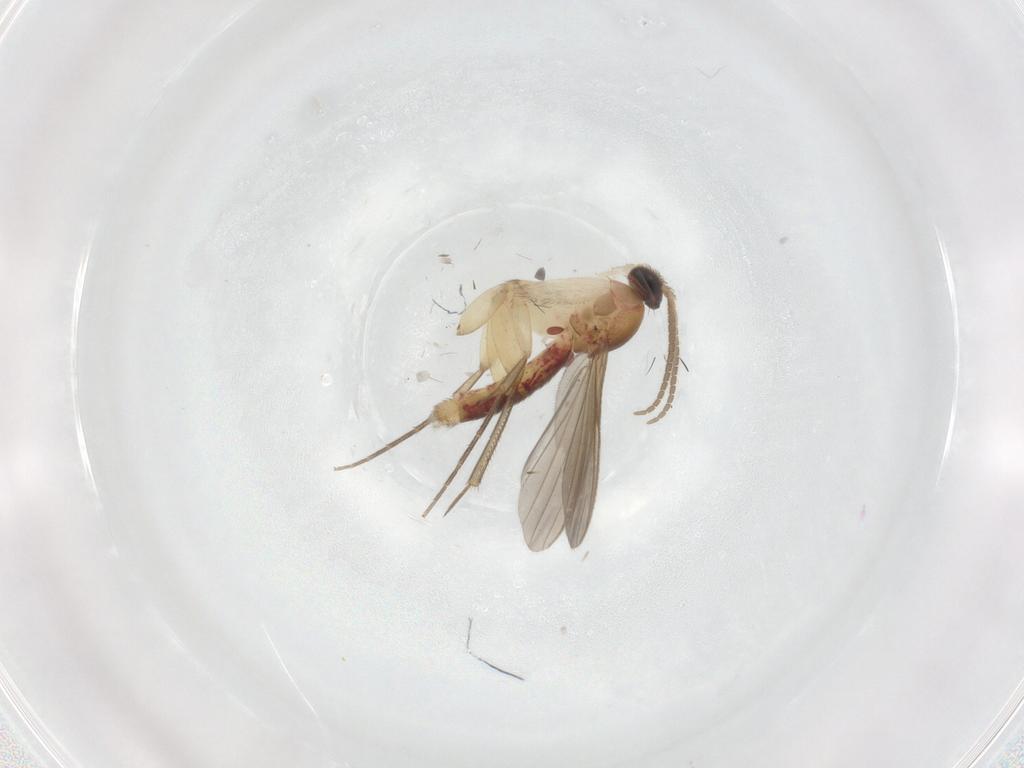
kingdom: Animalia
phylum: Arthropoda
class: Insecta
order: Diptera
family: Mycetophilidae
